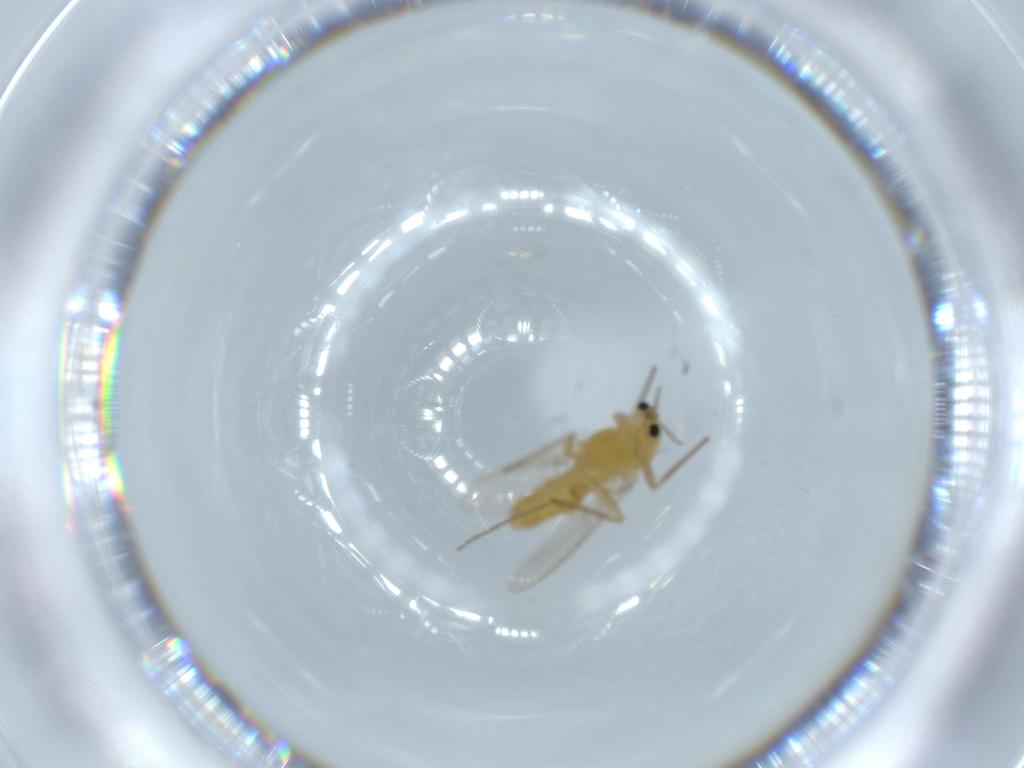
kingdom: Animalia
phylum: Arthropoda
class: Insecta
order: Diptera
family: Chironomidae
